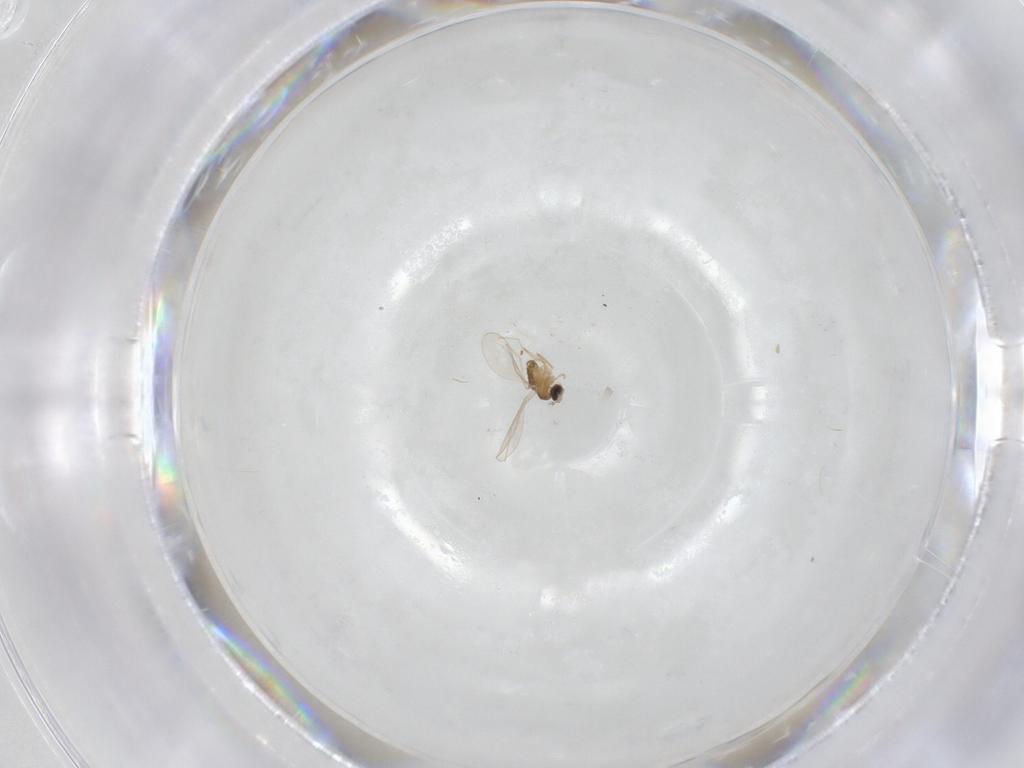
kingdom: Animalia
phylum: Arthropoda
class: Insecta
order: Diptera
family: Cecidomyiidae
